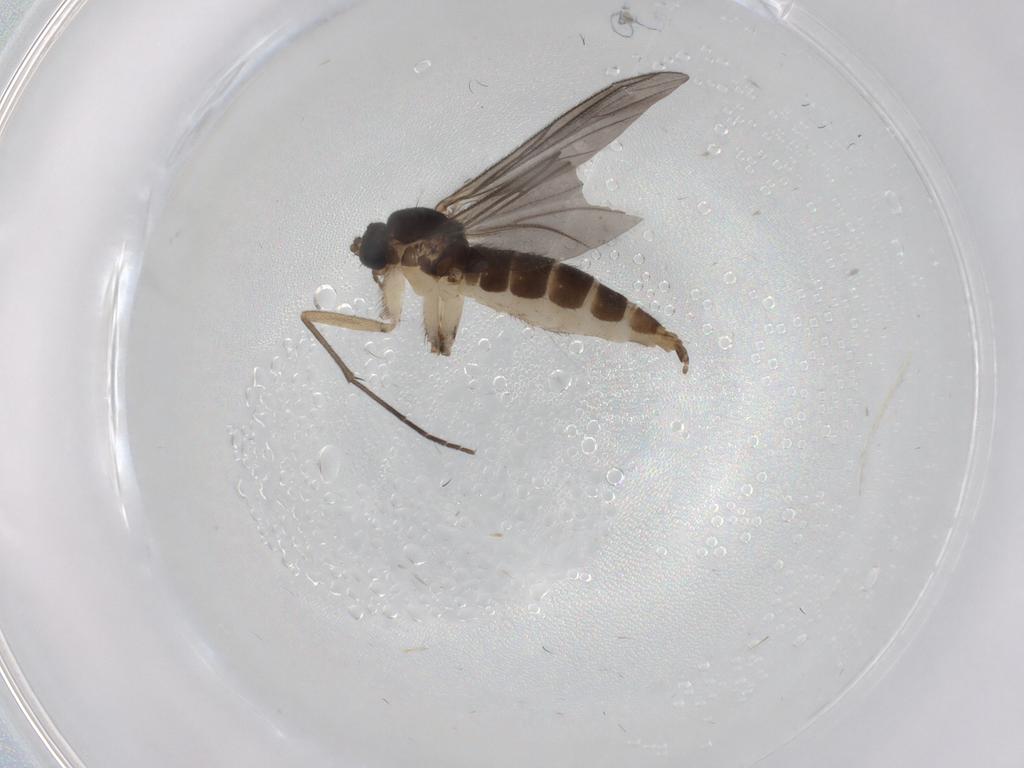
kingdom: Animalia
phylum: Arthropoda
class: Insecta
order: Diptera
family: Sciaridae
